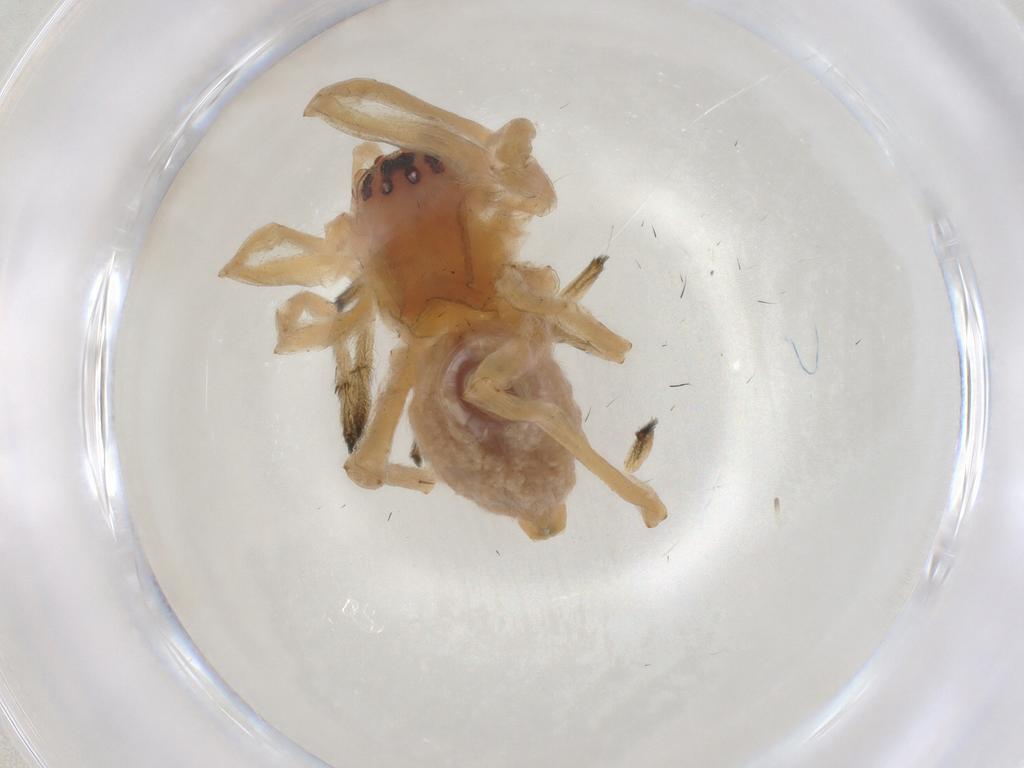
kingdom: Animalia
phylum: Arthropoda
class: Arachnida
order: Araneae
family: Cheiracanthiidae
